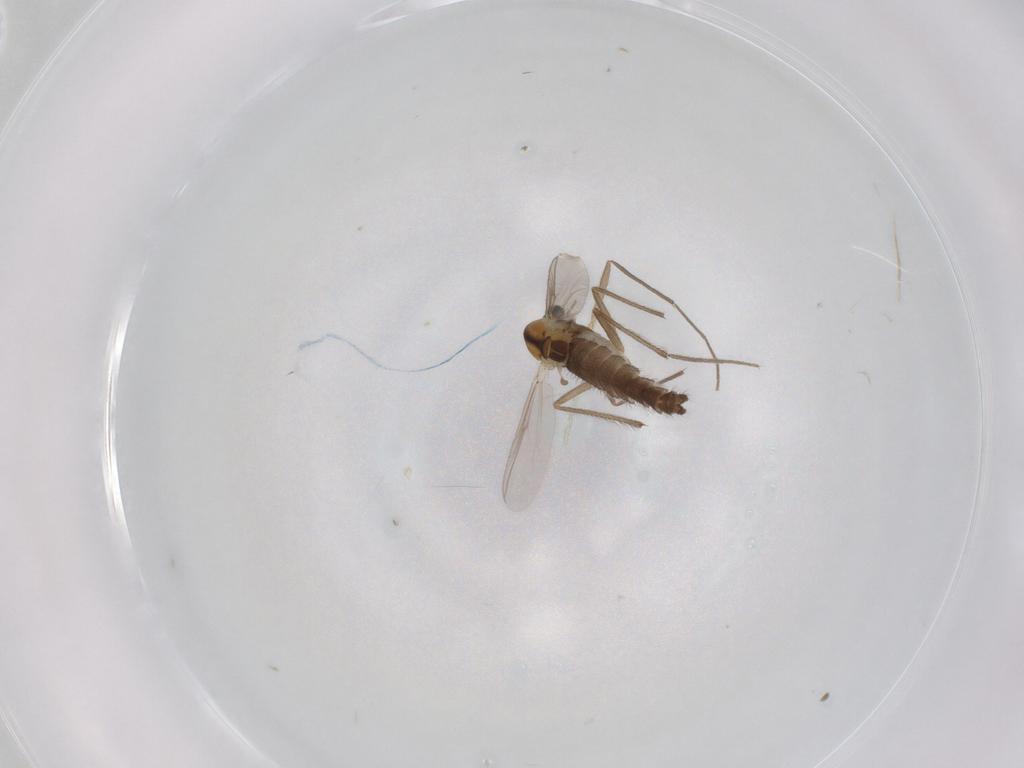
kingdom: Animalia
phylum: Arthropoda
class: Insecta
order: Diptera
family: Chironomidae
